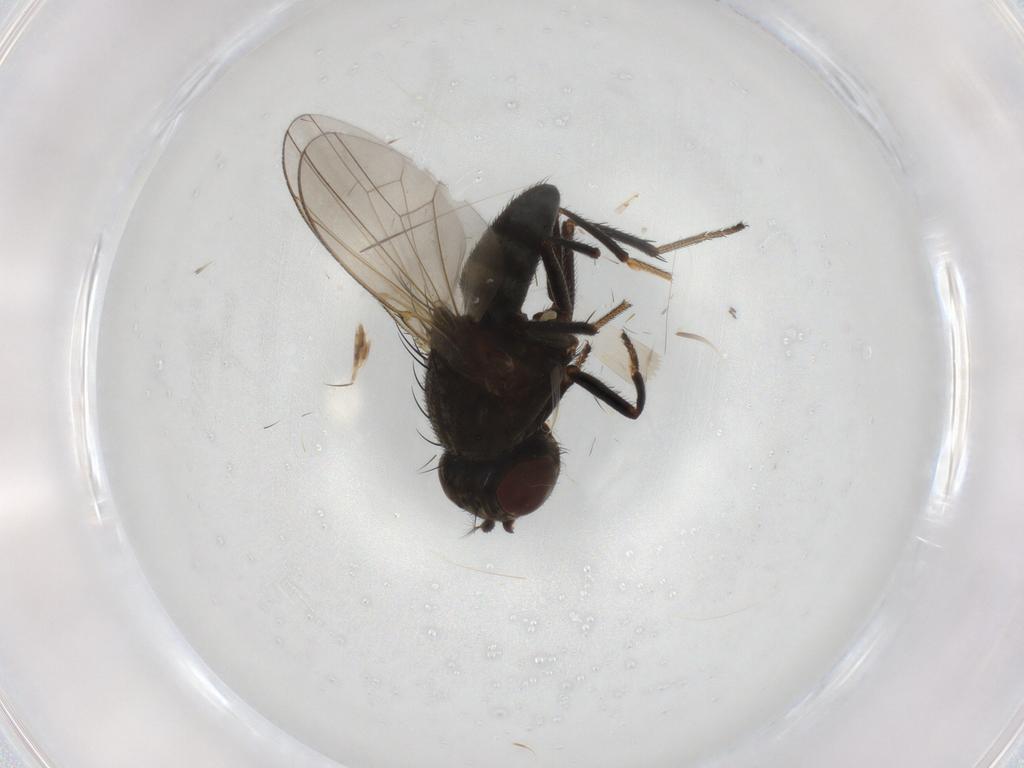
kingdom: Animalia
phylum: Arthropoda
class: Insecta
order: Diptera
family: Ephydridae
